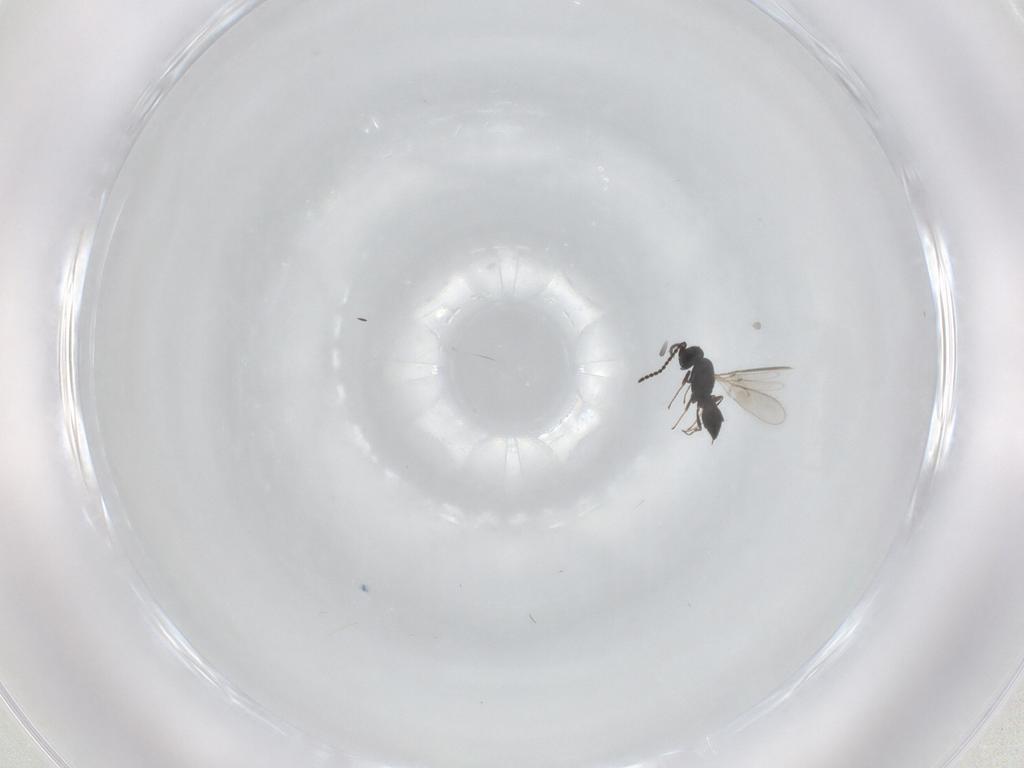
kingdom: Animalia
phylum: Arthropoda
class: Insecta
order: Hymenoptera
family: Scelionidae
